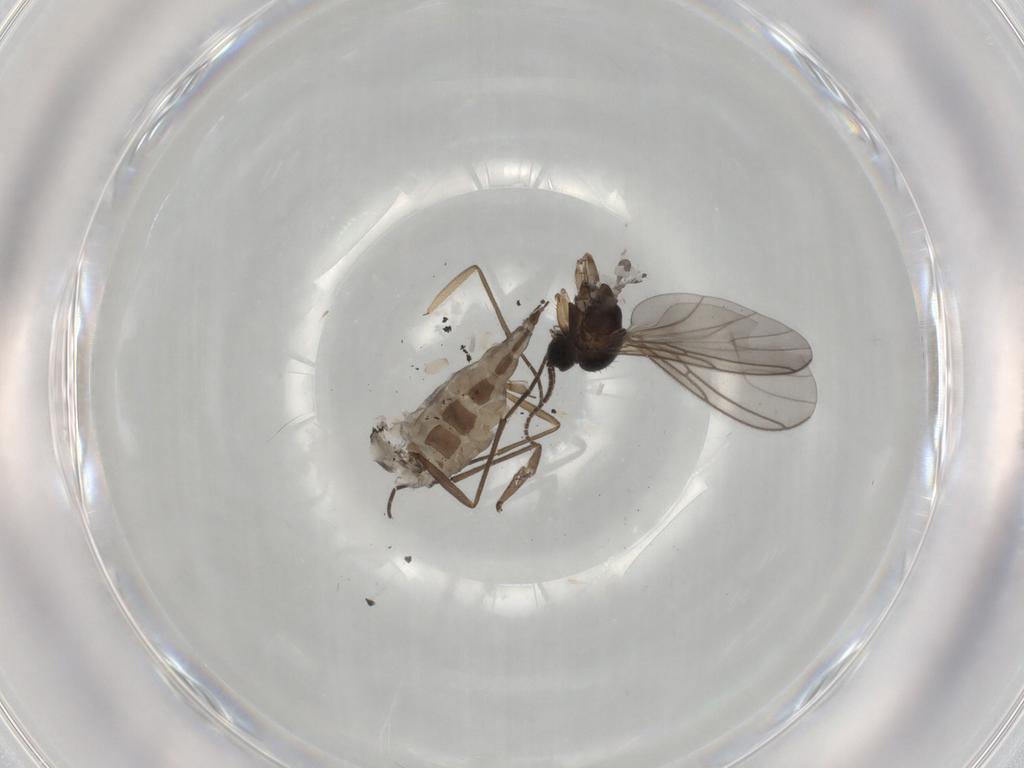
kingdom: Animalia
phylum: Arthropoda
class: Insecta
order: Diptera
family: Sciaridae
